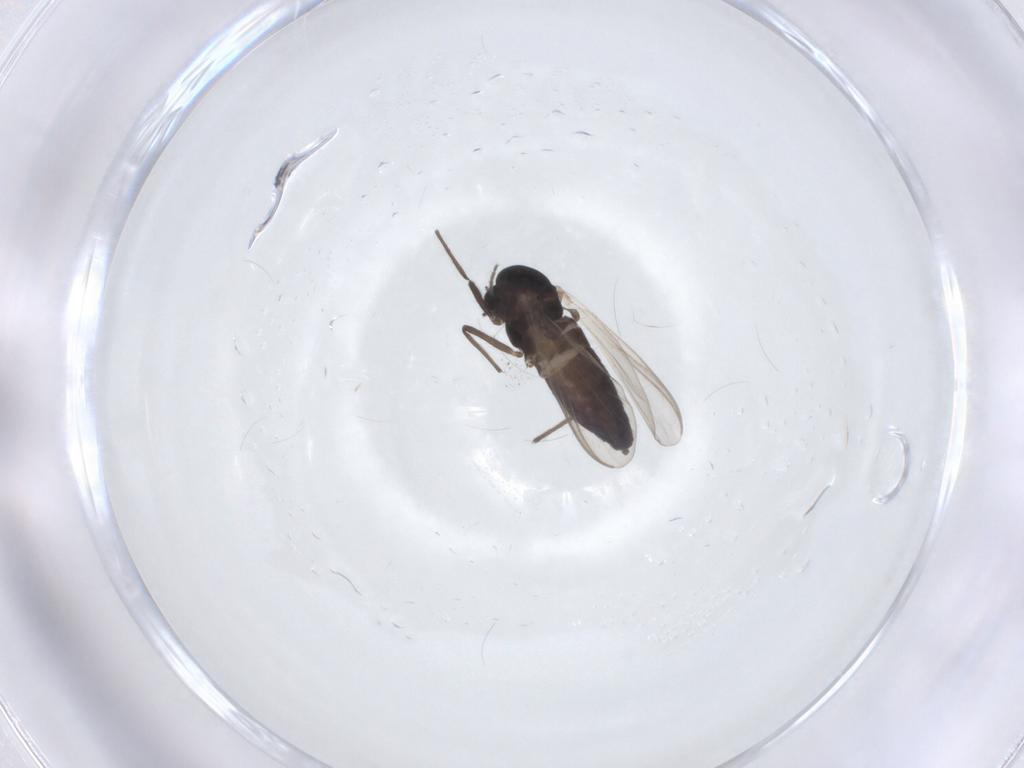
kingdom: Animalia
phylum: Arthropoda
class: Insecta
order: Diptera
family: Chironomidae
